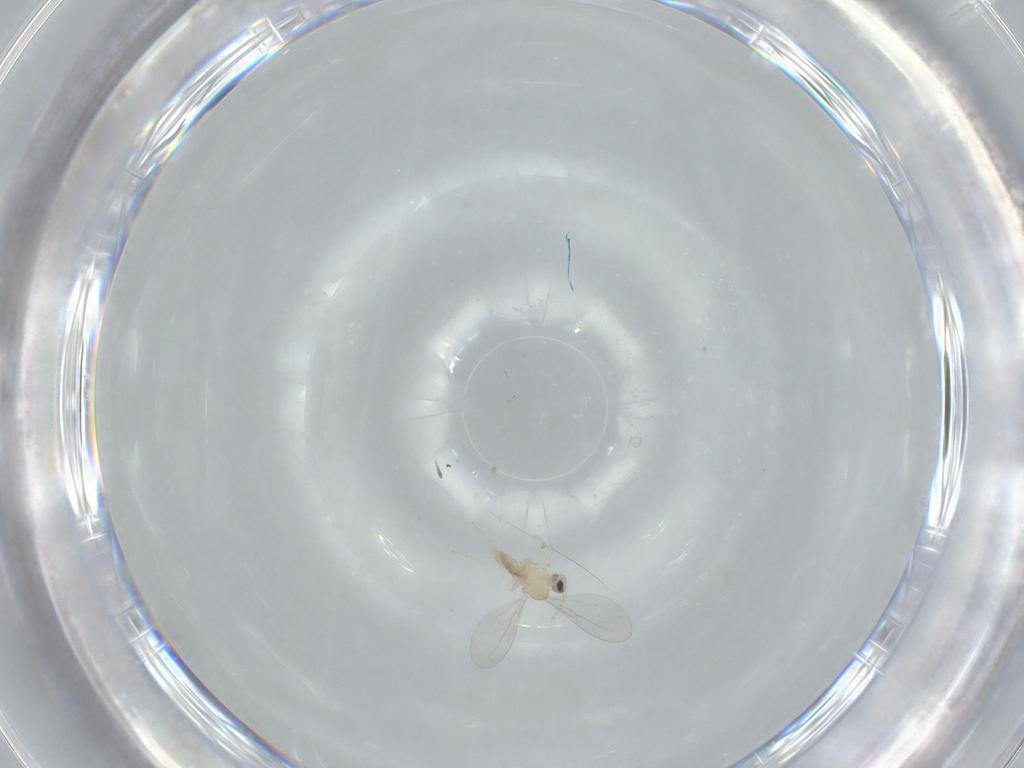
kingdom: Animalia
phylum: Arthropoda
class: Insecta
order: Diptera
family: Cecidomyiidae
